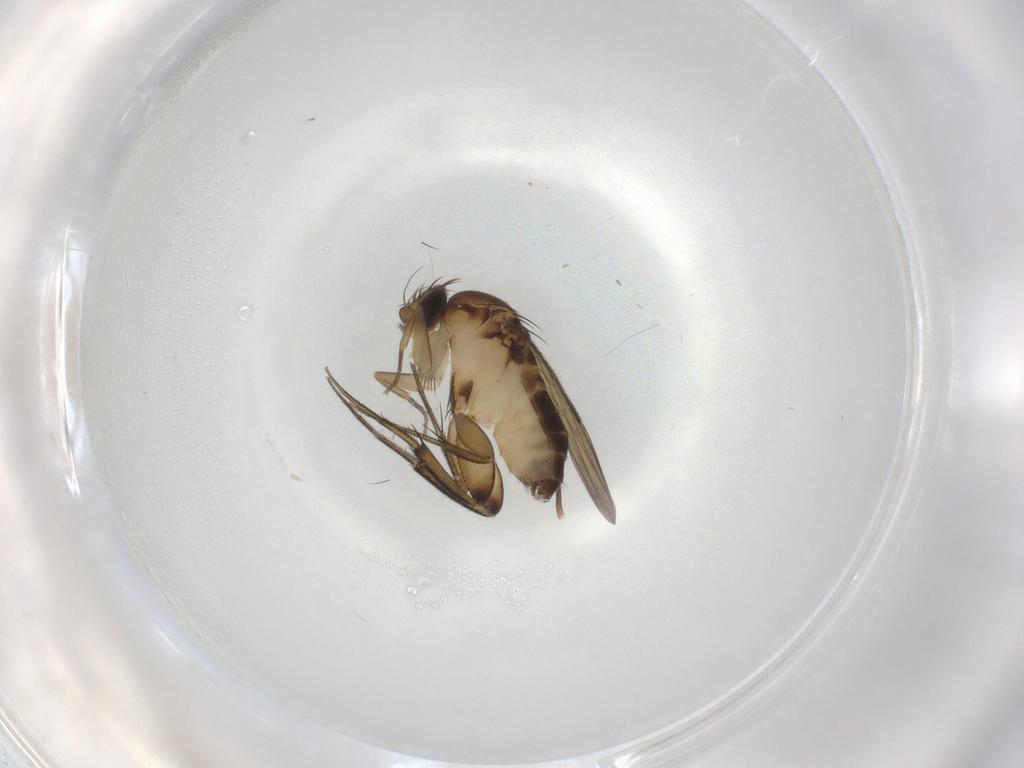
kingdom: Animalia
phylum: Arthropoda
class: Insecta
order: Diptera
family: Phoridae
